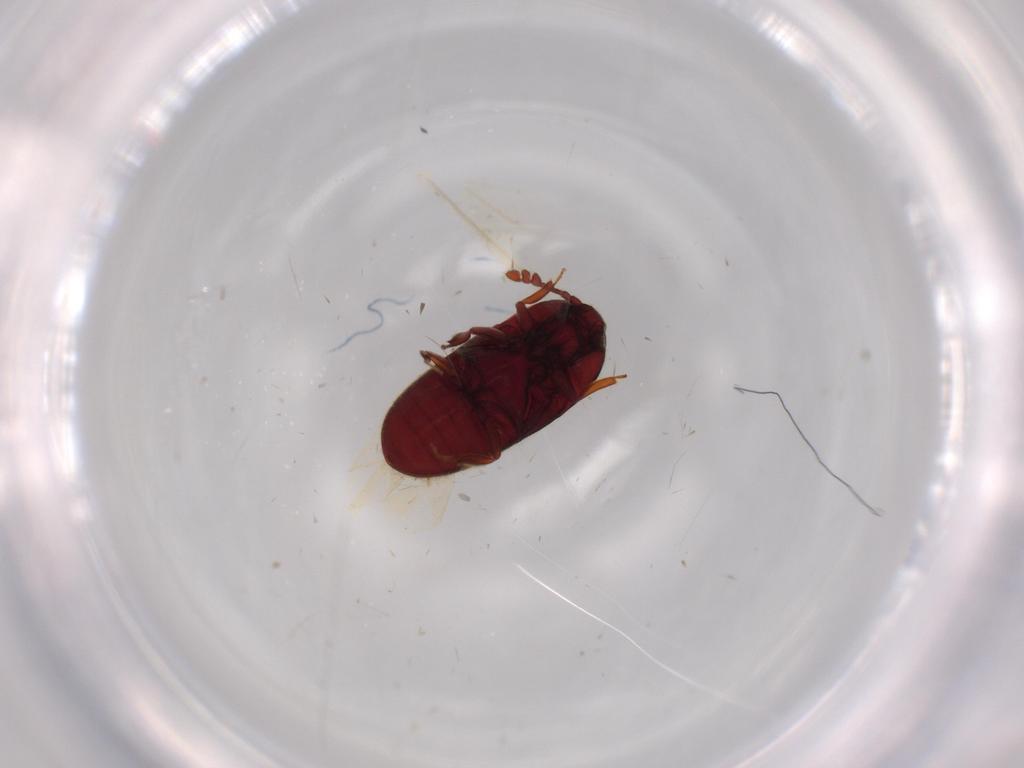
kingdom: Animalia
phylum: Arthropoda
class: Insecta
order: Coleoptera
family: Throscidae
